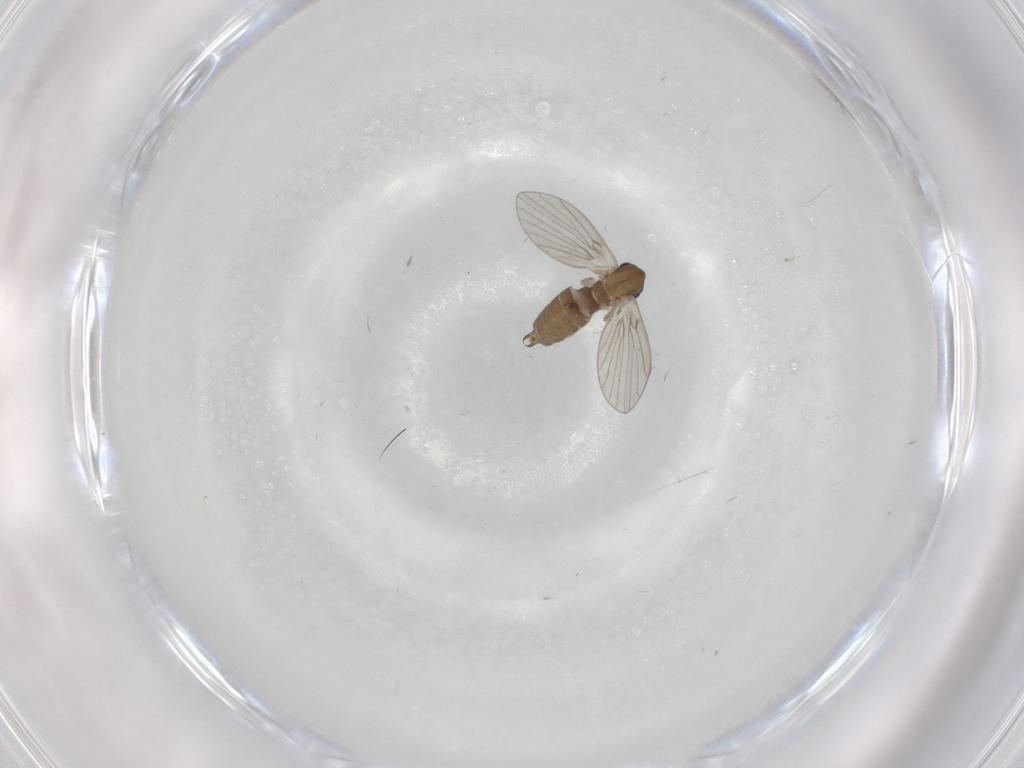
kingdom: Animalia
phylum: Arthropoda
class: Insecta
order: Diptera
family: Chironomidae
